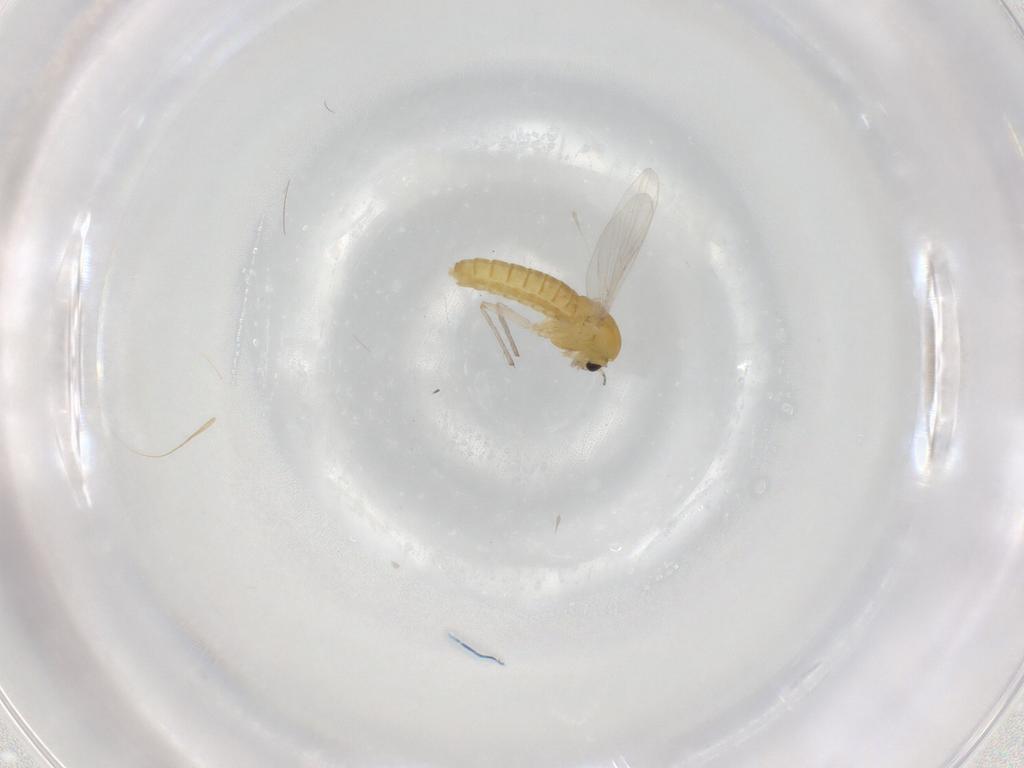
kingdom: Animalia
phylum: Arthropoda
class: Insecta
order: Diptera
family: Chironomidae
